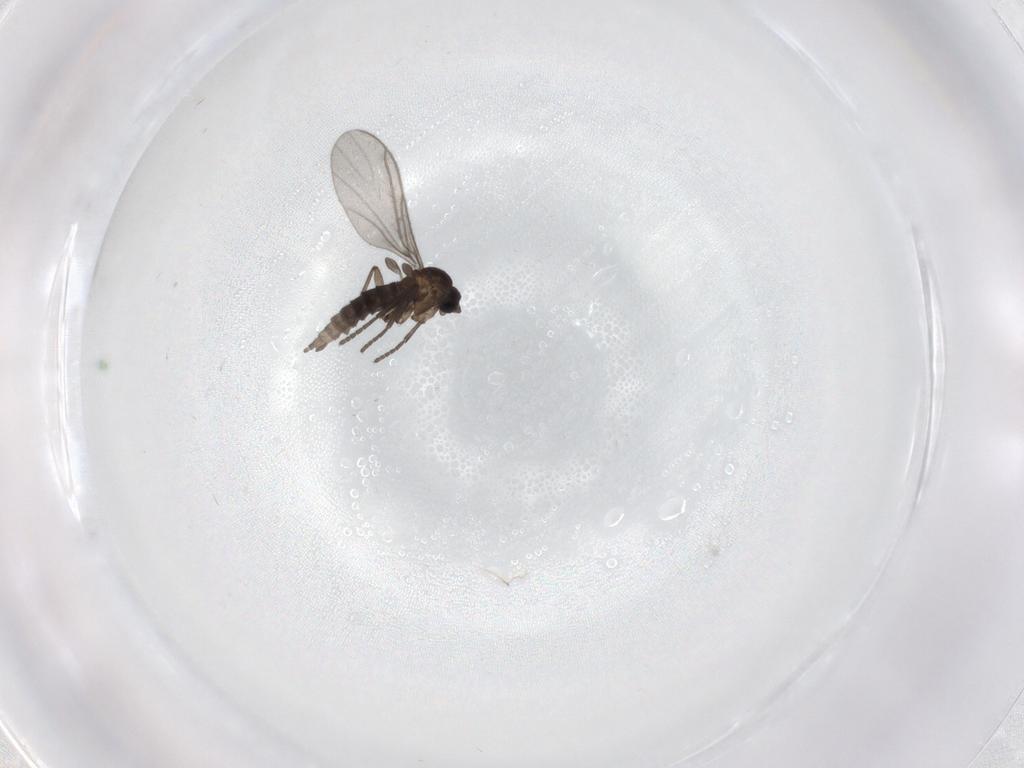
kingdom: Animalia
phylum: Arthropoda
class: Insecta
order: Diptera
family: Sciaridae
